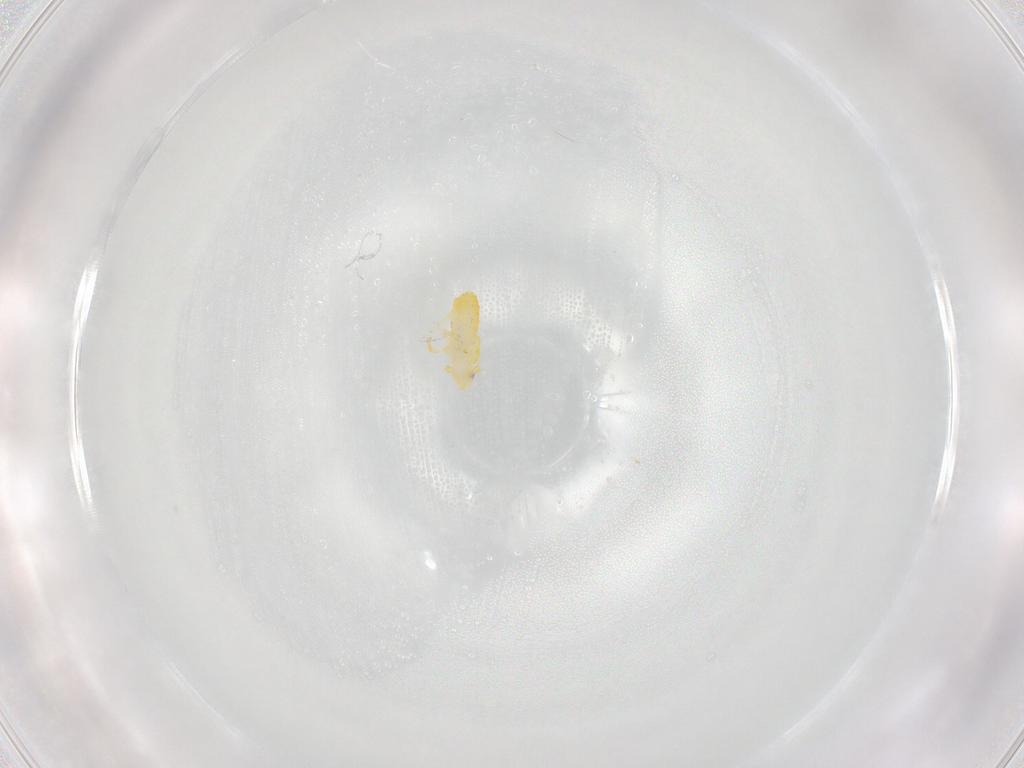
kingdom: Animalia
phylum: Arthropoda
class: Insecta
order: Hemiptera
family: Delphacidae
